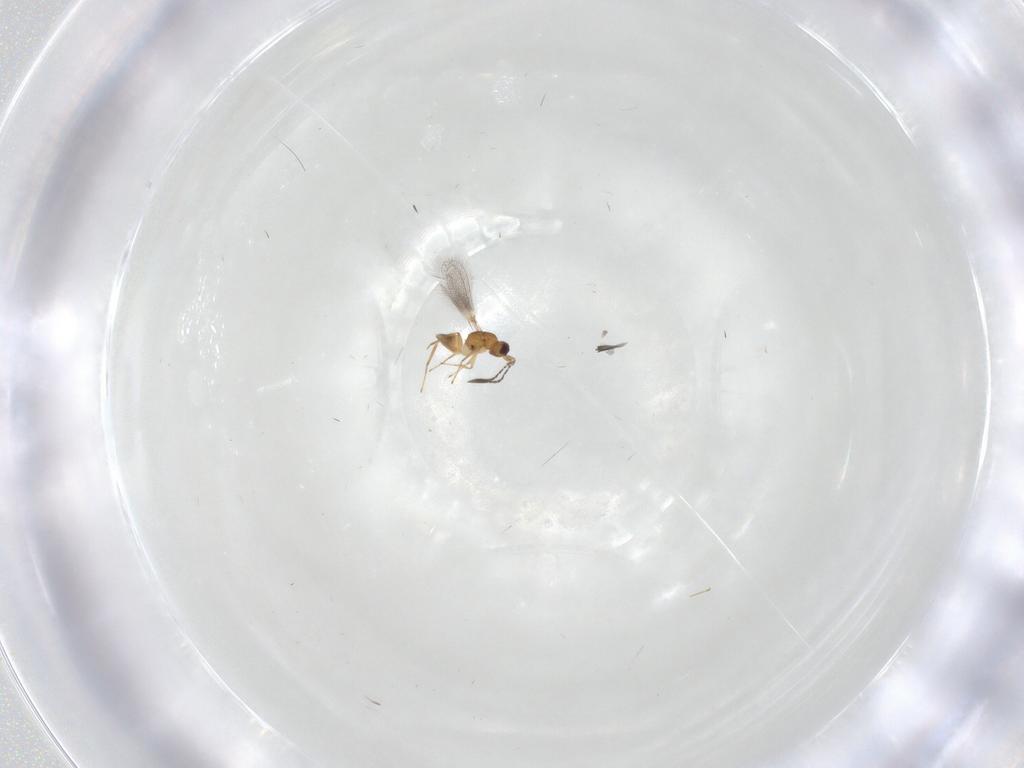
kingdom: Animalia
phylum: Arthropoda
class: Insecta
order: Hymenoptera
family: Mymaridae
